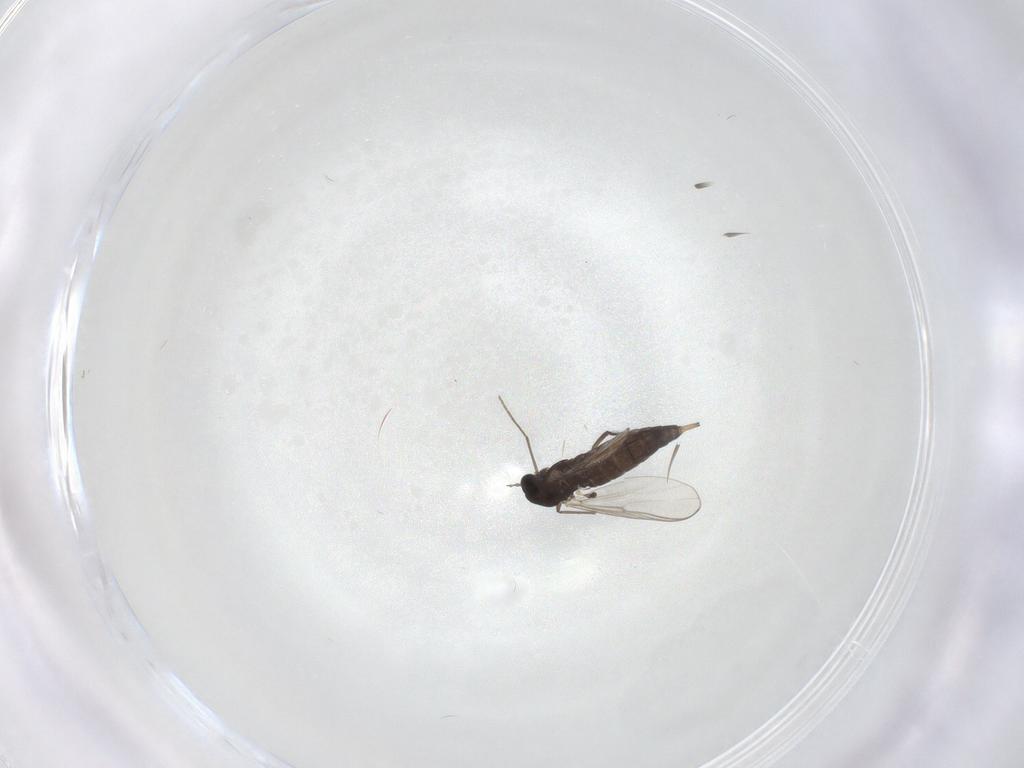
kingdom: Animalia
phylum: Arthropoda
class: Insecta
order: Diptera
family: Chironomidae
